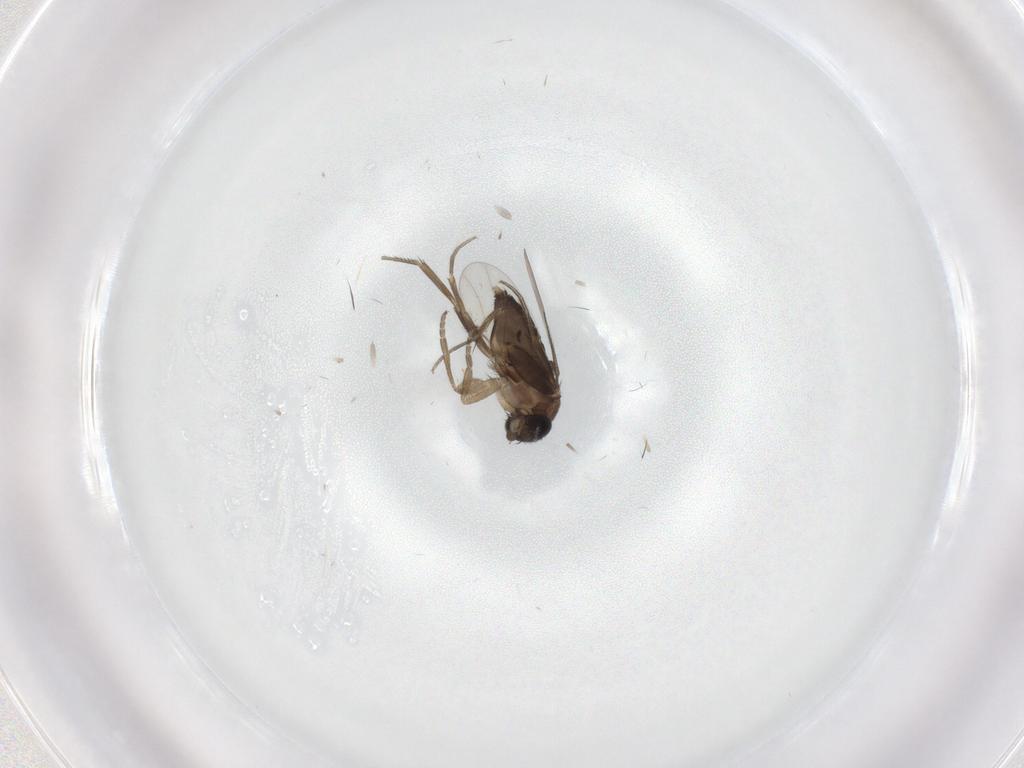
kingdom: Animalia
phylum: Arthropoda
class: Insecta
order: Diptera
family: Phoridae
